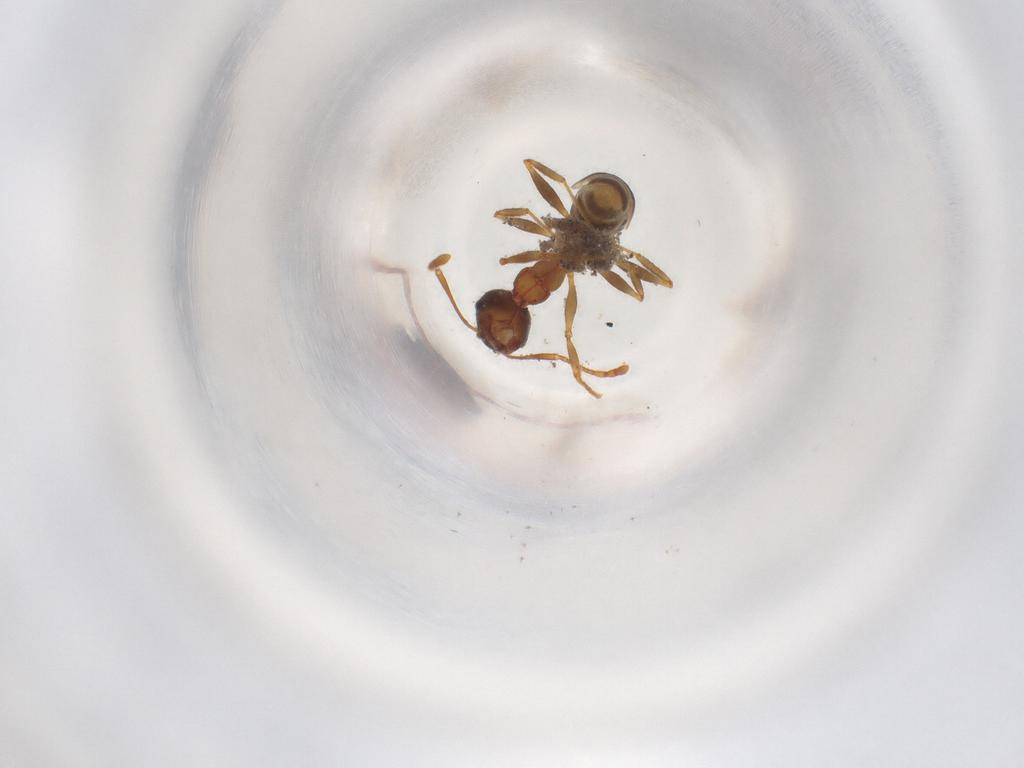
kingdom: Animalia
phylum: Arthropoda
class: Insecta
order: Hymenoptera
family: Formicidae
